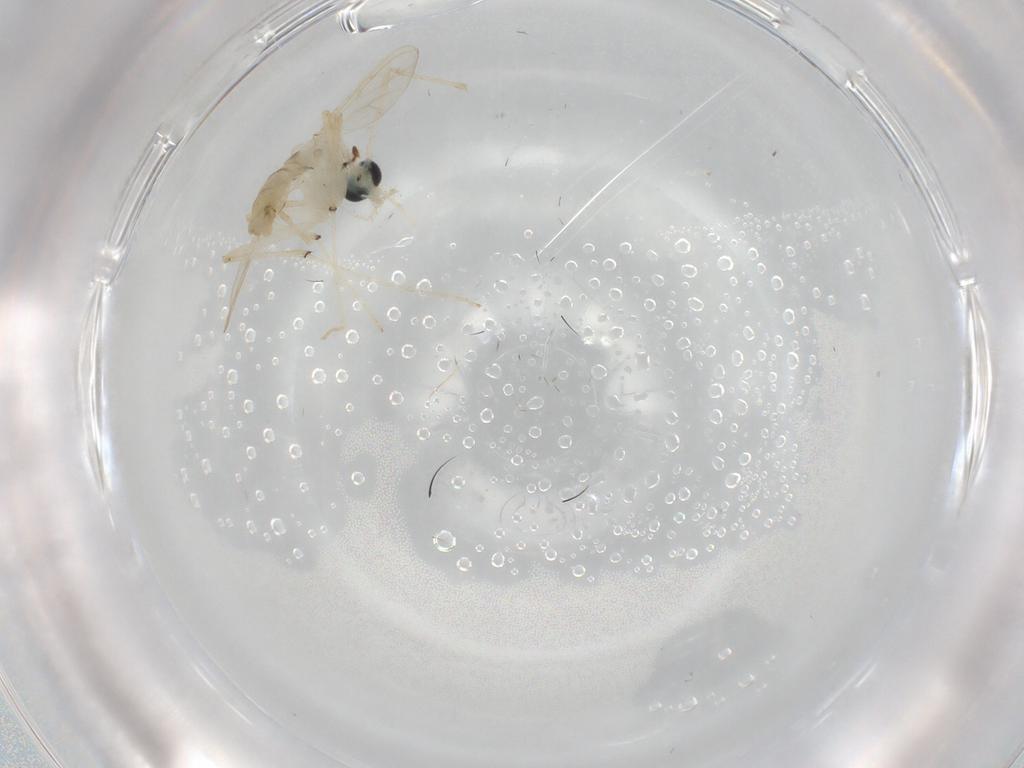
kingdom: Animalia
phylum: Arthropoda
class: Insecta
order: Diptera
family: Chironomidae
